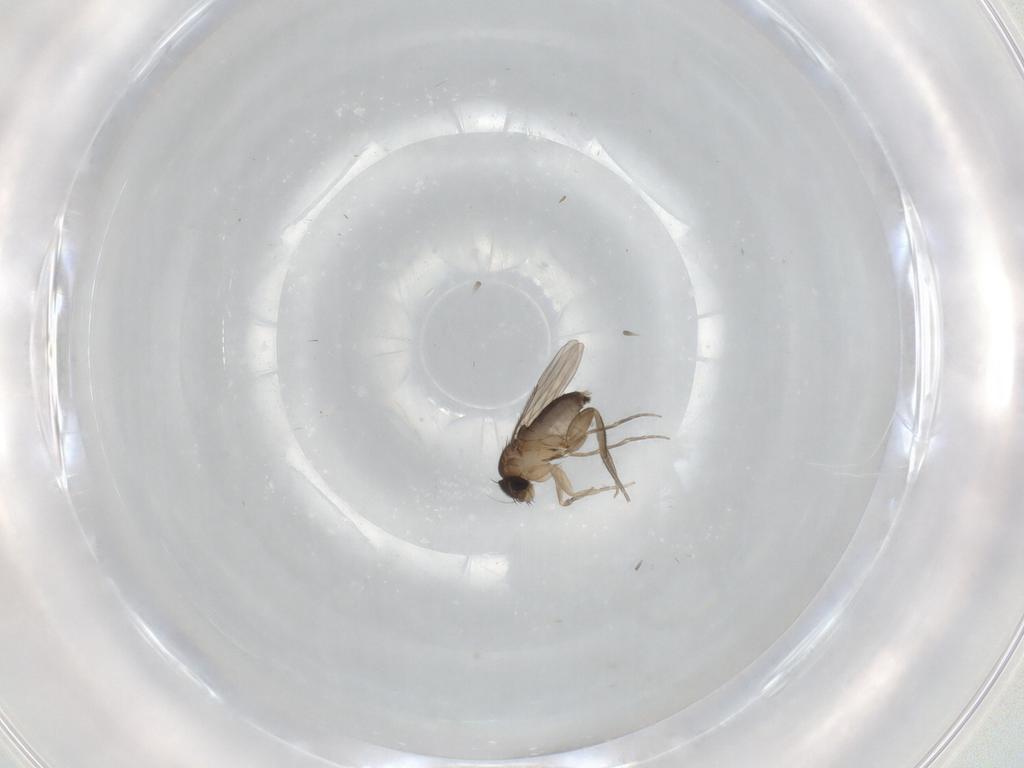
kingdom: Animalia
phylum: Arthropoda
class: Insecta
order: Diptera
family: Phoridae
